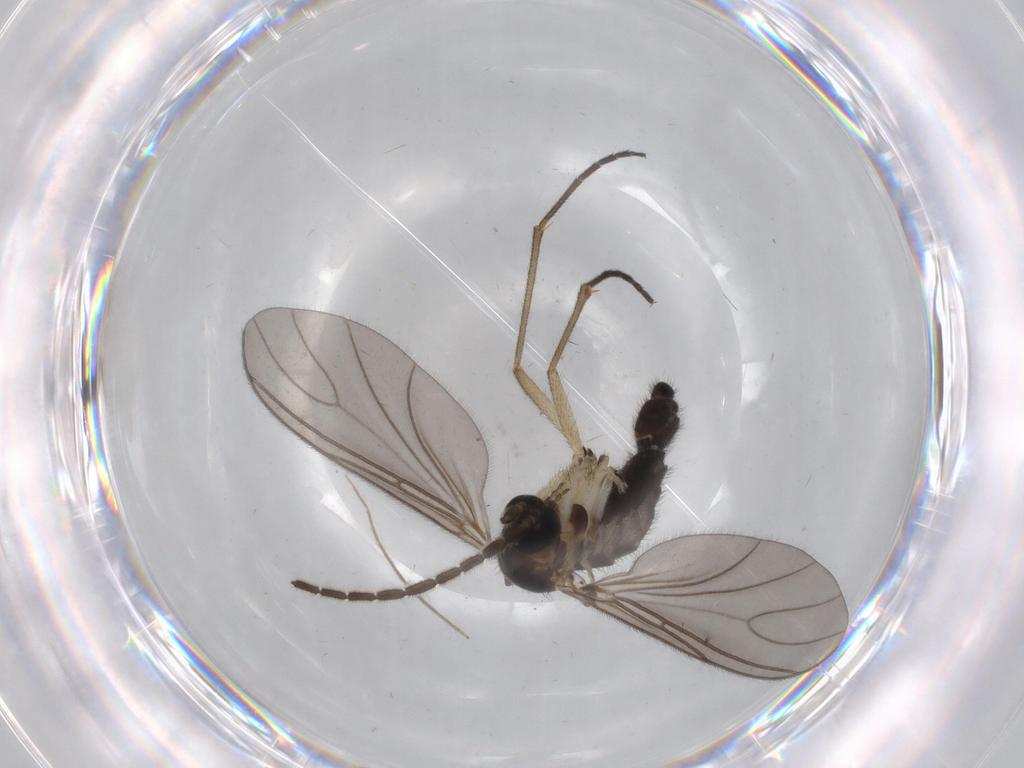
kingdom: Animalia
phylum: Arthropoda
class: Insecta
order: Diptera
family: Sciaridae
